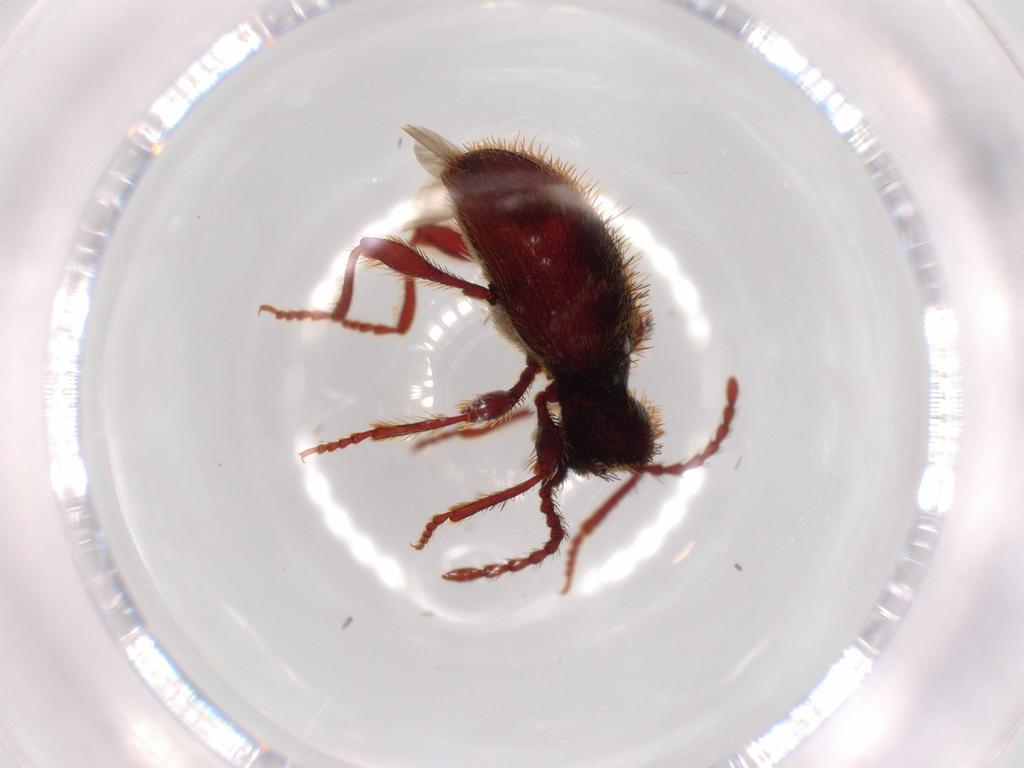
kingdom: Animalia
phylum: Arthropoda
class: Insecta
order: Coleoptera
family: Ptinidae
